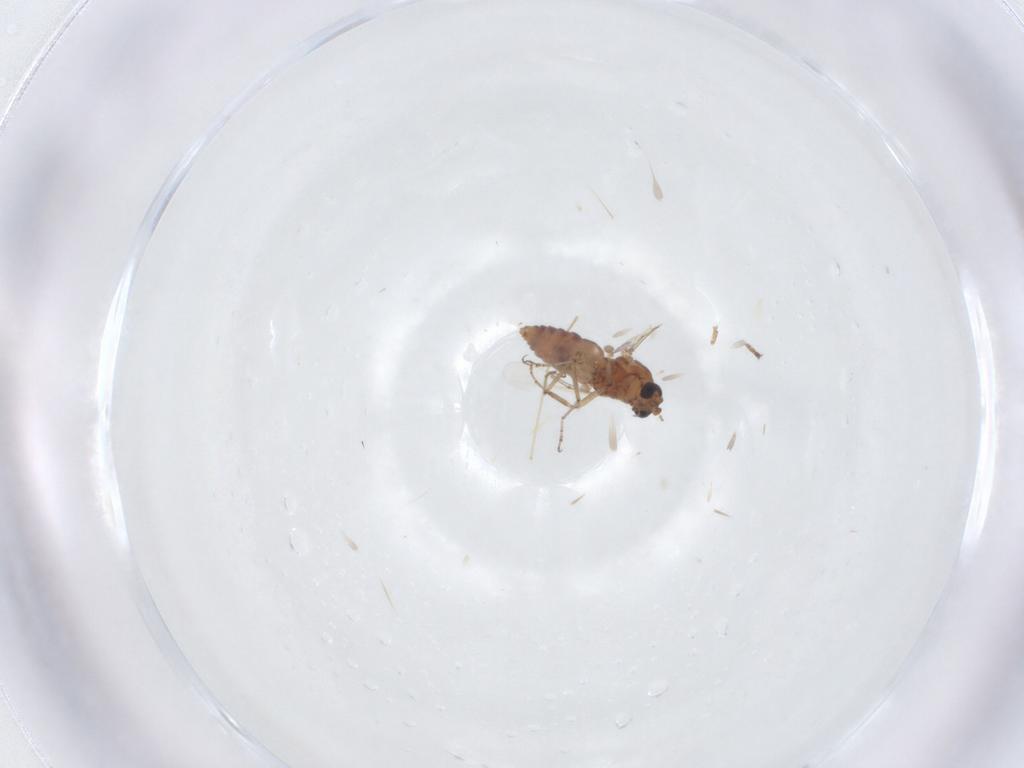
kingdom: Animalia
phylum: Arthropoda
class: Insecta
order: Diptera
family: Ceratopogonidae
